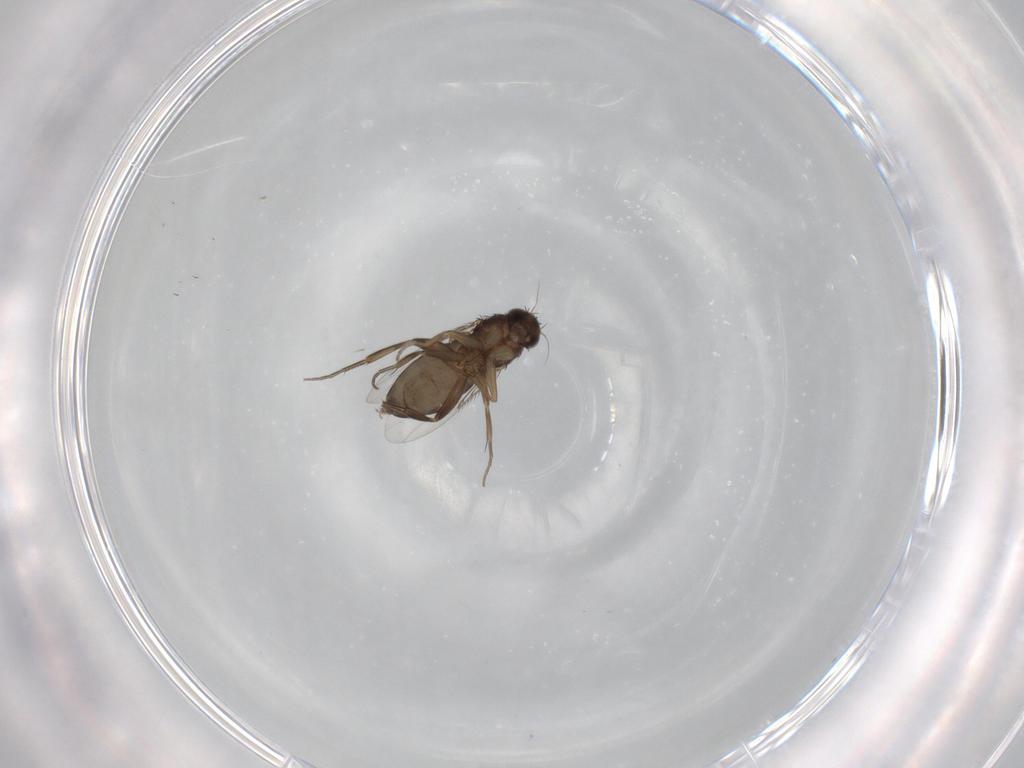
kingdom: Animalia
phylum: Arthropoda
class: Insecta
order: Diptera
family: Phoridae
